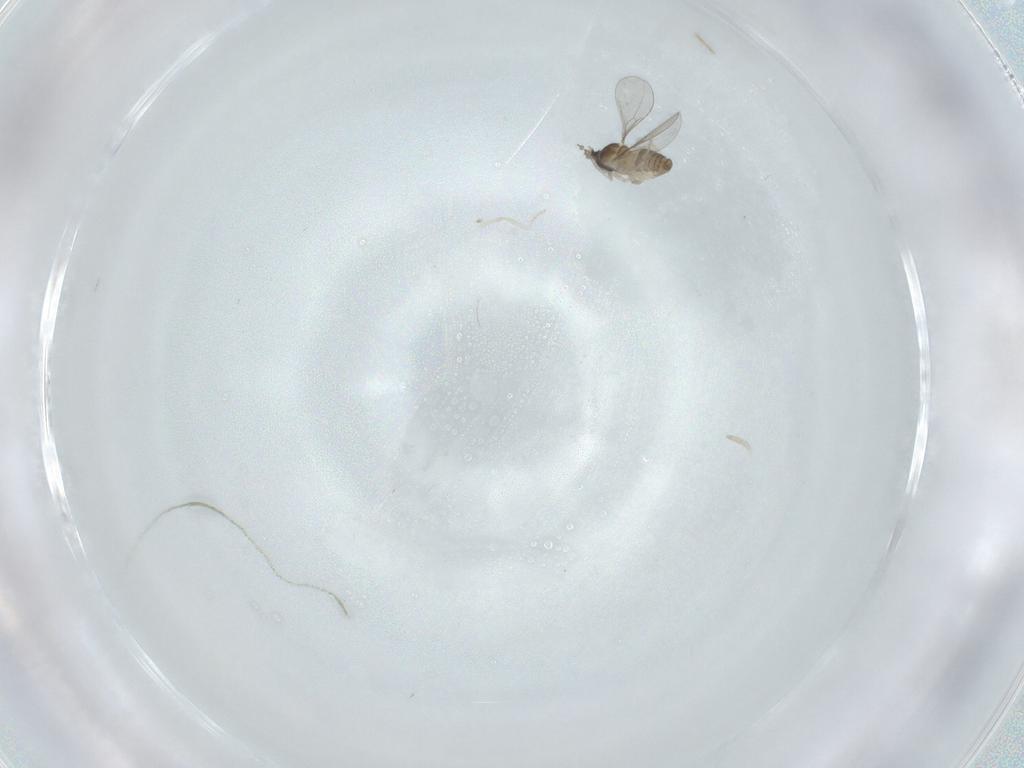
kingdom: Animalia
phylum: Arthropoda
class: Insecta
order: Diptera
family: Cecidomyiidae
